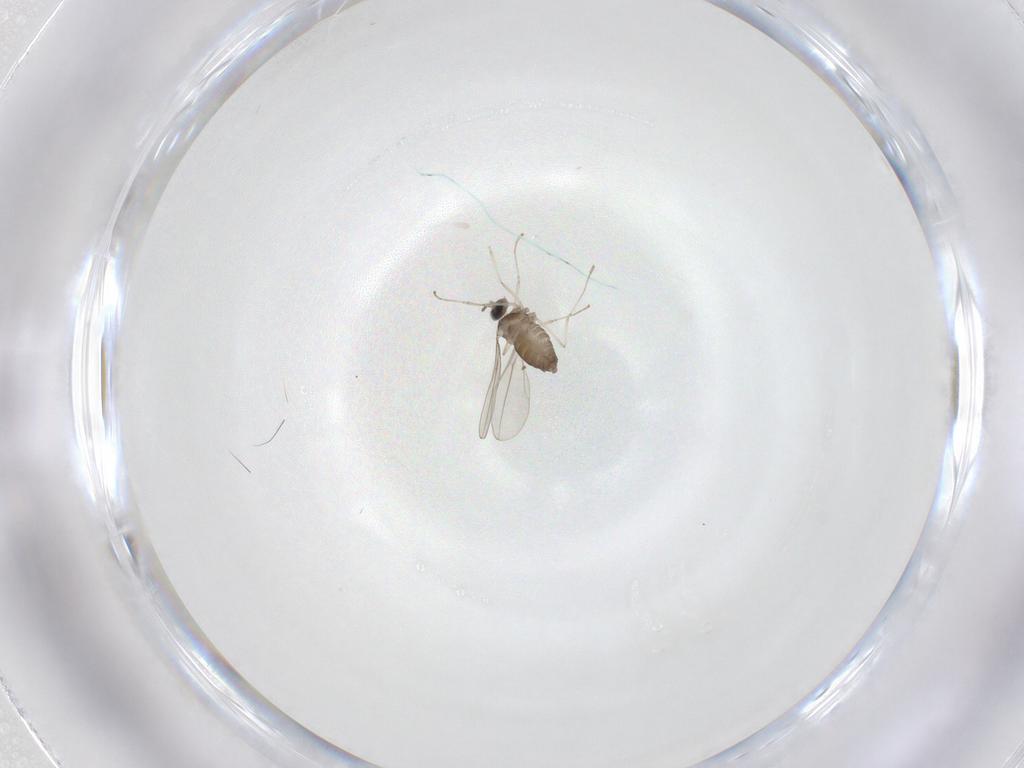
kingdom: Animalia
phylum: Arthropoda
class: Insecta
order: Diptera
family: Cecidomyiidae
